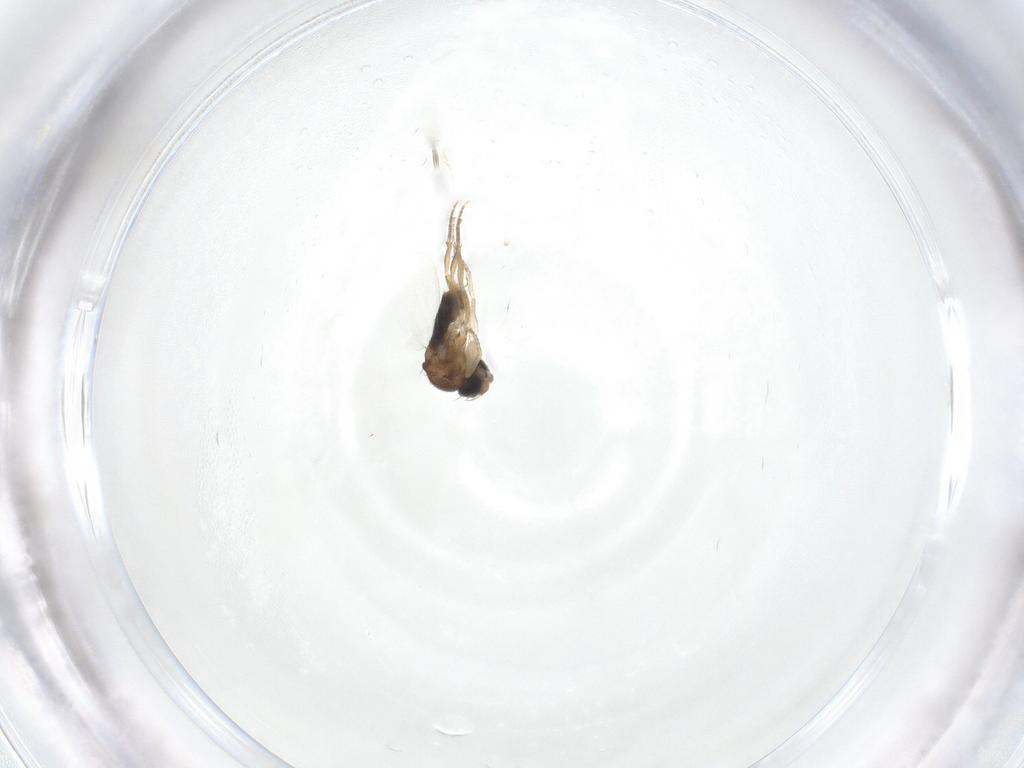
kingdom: Animalia
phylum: Arthropoda
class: Insecta
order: Diptera
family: Phoridae
